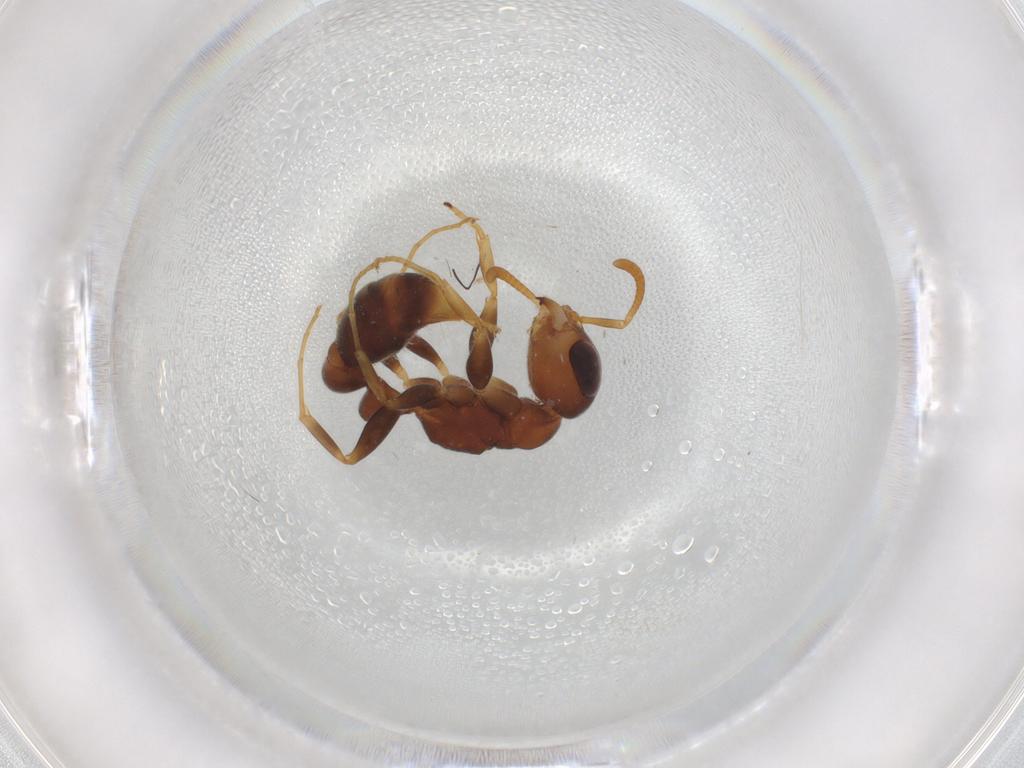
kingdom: Animalia
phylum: Arthropoda
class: Insecta
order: Hymenoptera
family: Formicidae
